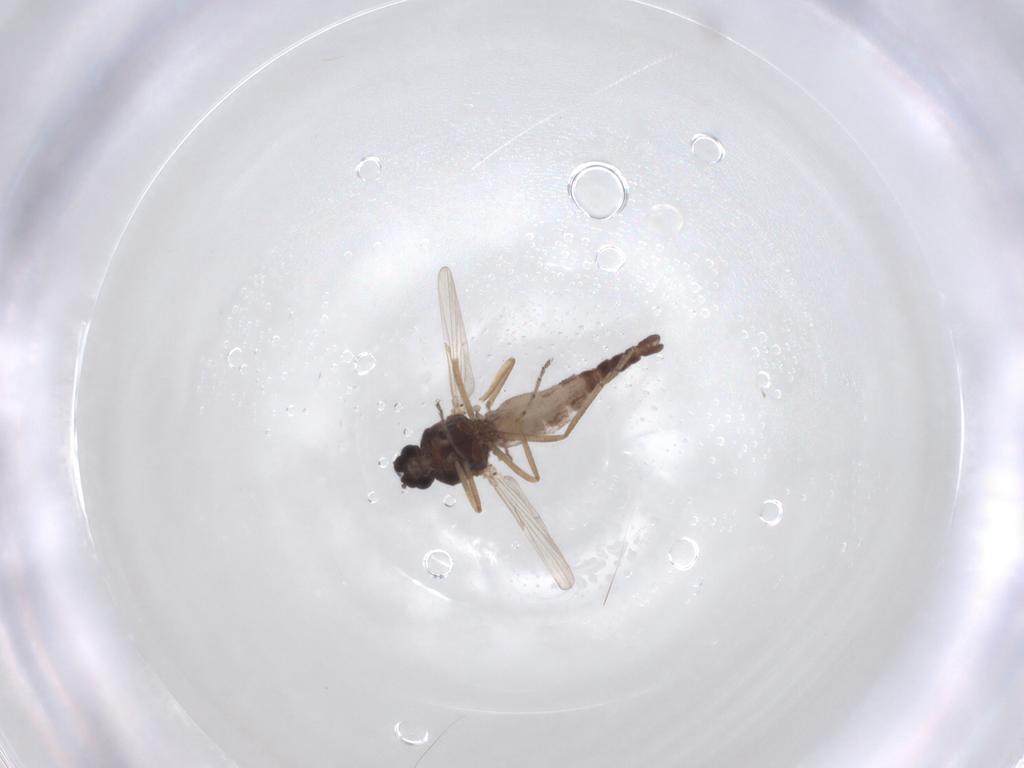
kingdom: Animalia
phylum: Arthropoda
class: Insecta
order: Diptera
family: Ceratopogonidae
